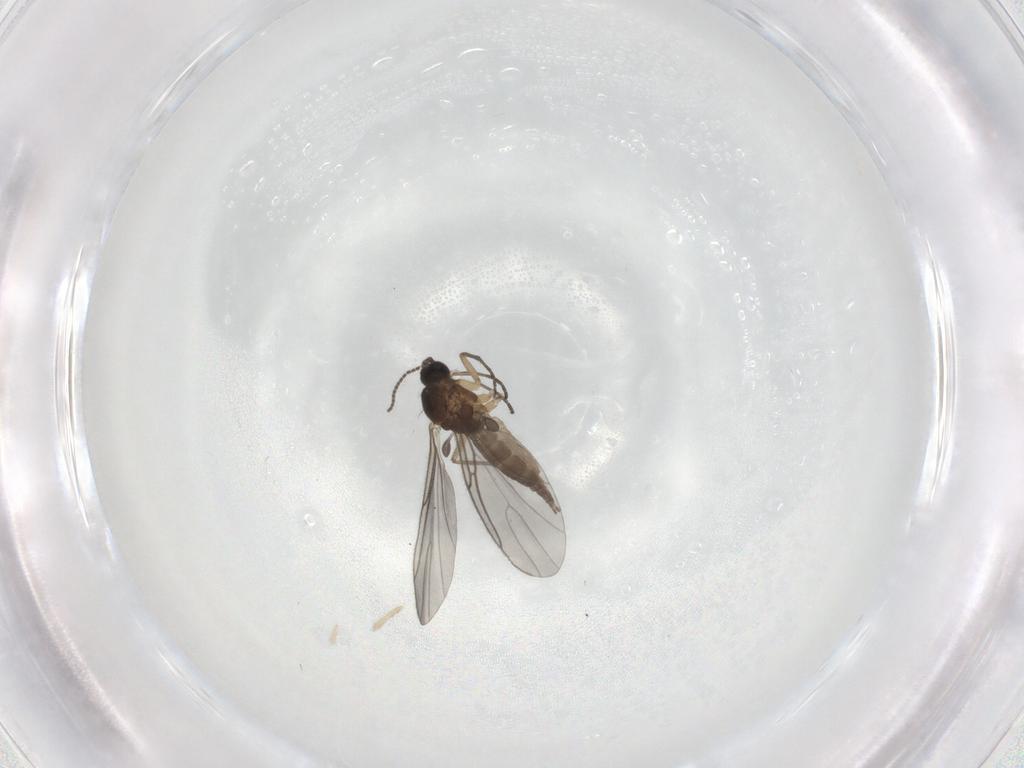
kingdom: Animalia
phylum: Arthropoda
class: Insecta
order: Diptera
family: Sciaridae
